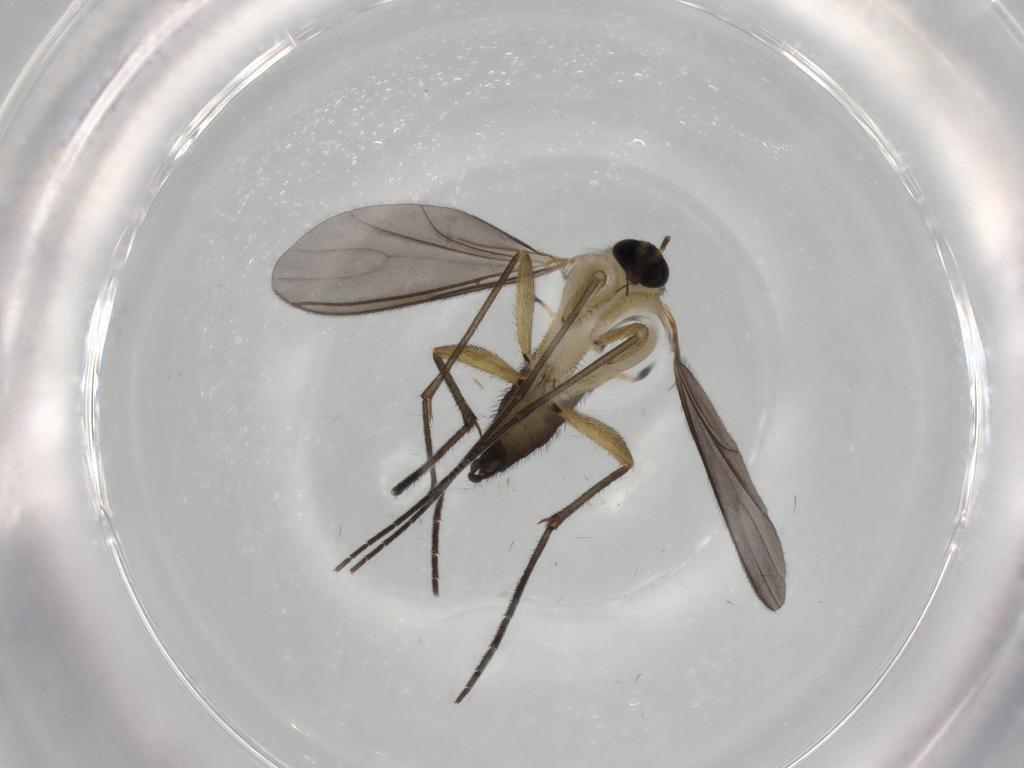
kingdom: Animalia
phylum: Arthropoda
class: Insecta
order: Diptera
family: Sciaridae
